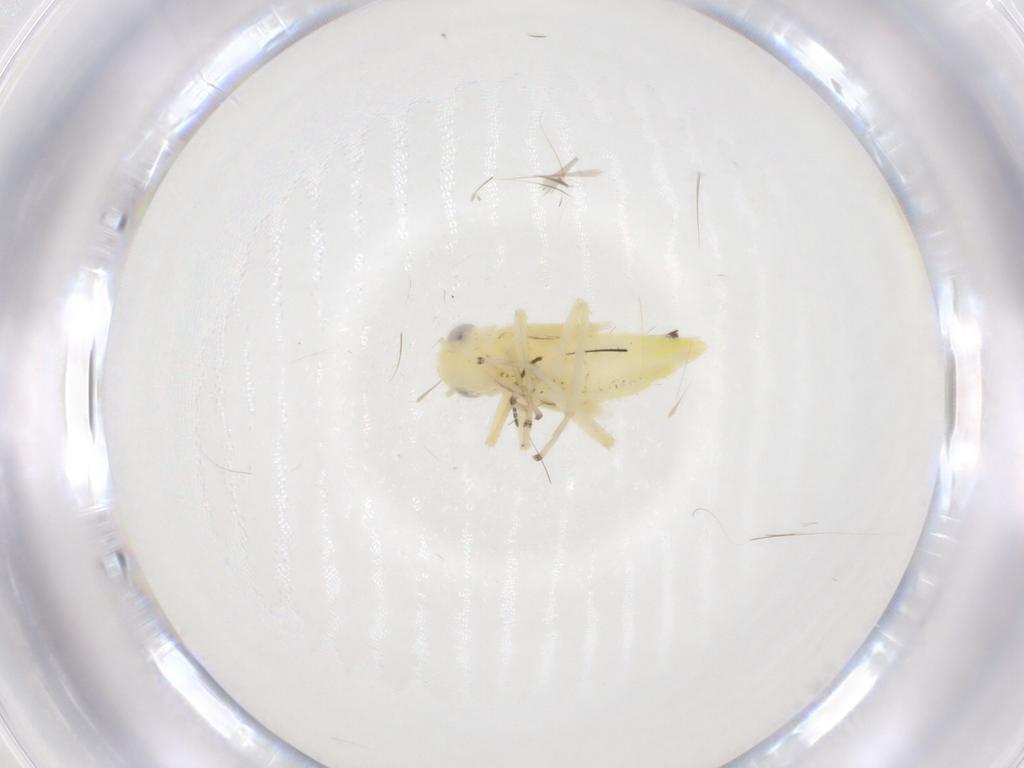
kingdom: Animalia
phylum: Arthropoda
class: Insecta
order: Hemiptera
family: Cicadellidae
